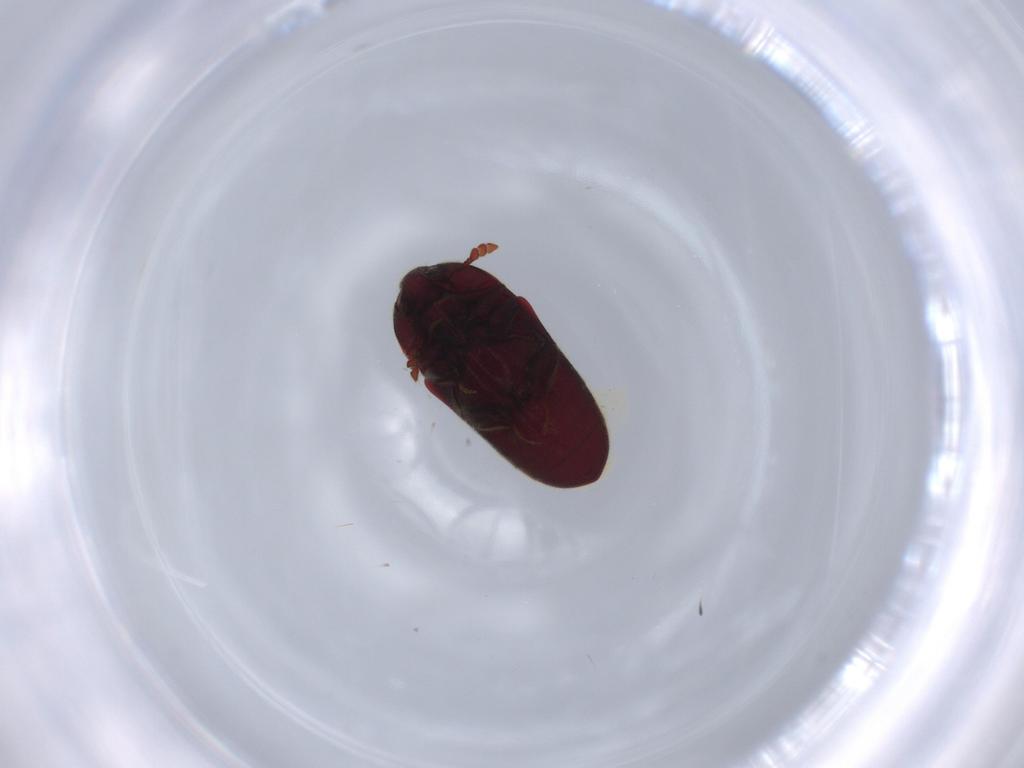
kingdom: Animalia
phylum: Arthropoda
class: Insecta
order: Coleoptera
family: Throscidae
